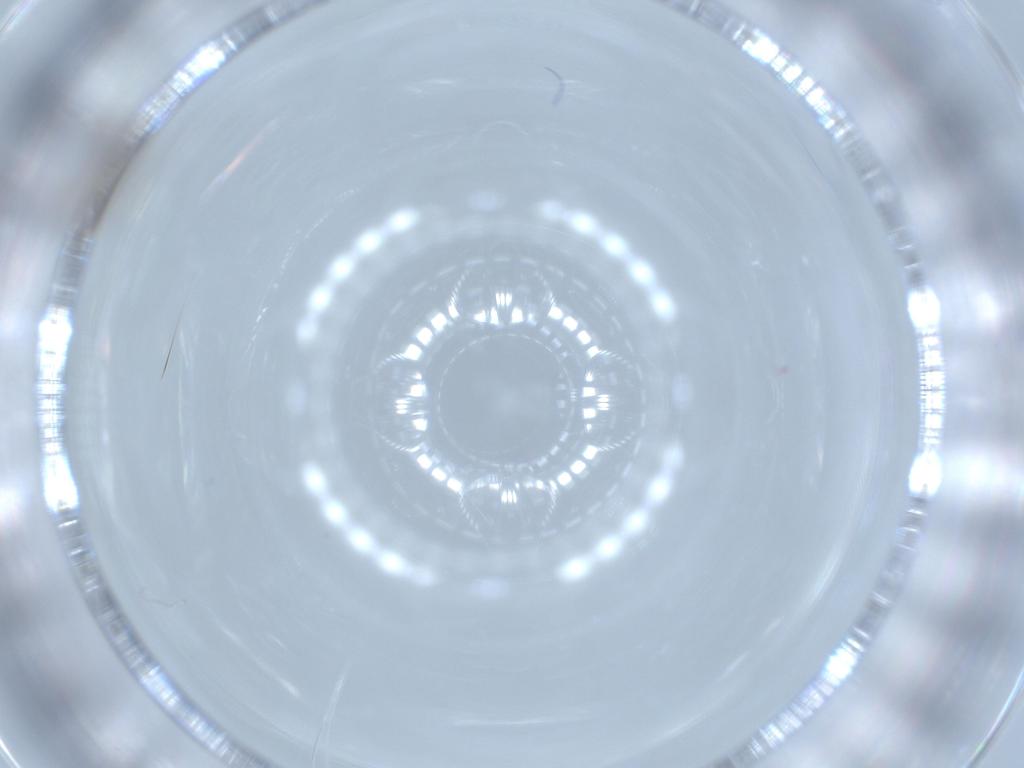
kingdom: Animalia
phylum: Arthropoda
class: Insecta
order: Diptera
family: Psychodidae
